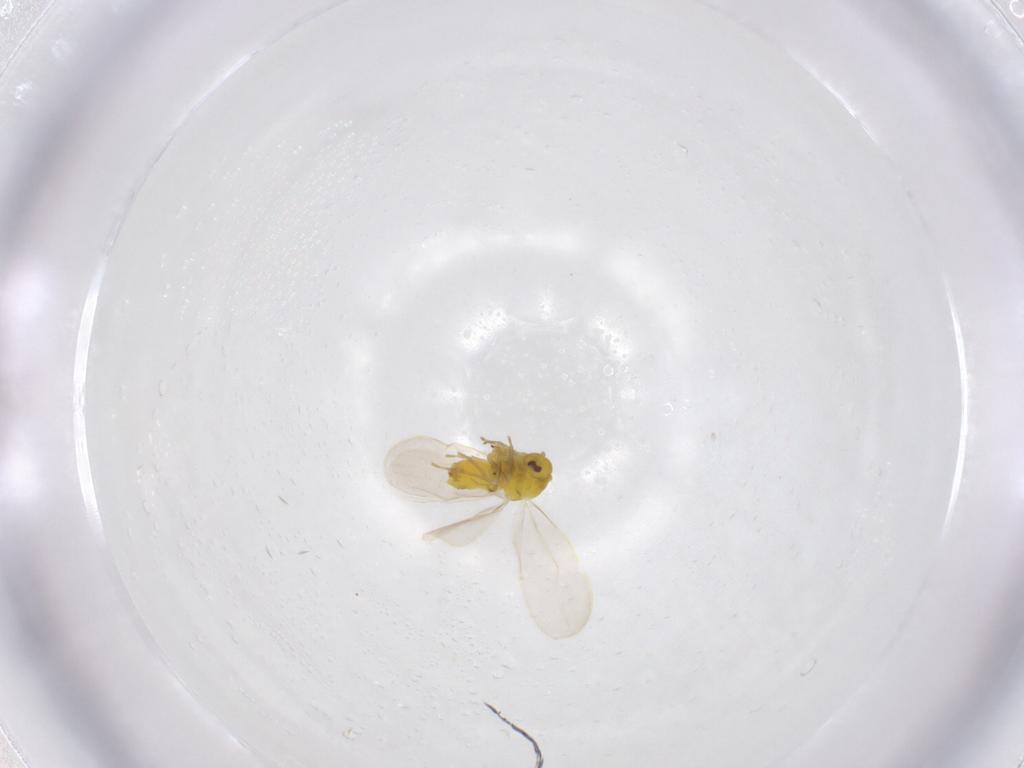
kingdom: Animalia
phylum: Arthropoda
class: Insecta
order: Hemiptera
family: Aleyrodidae
